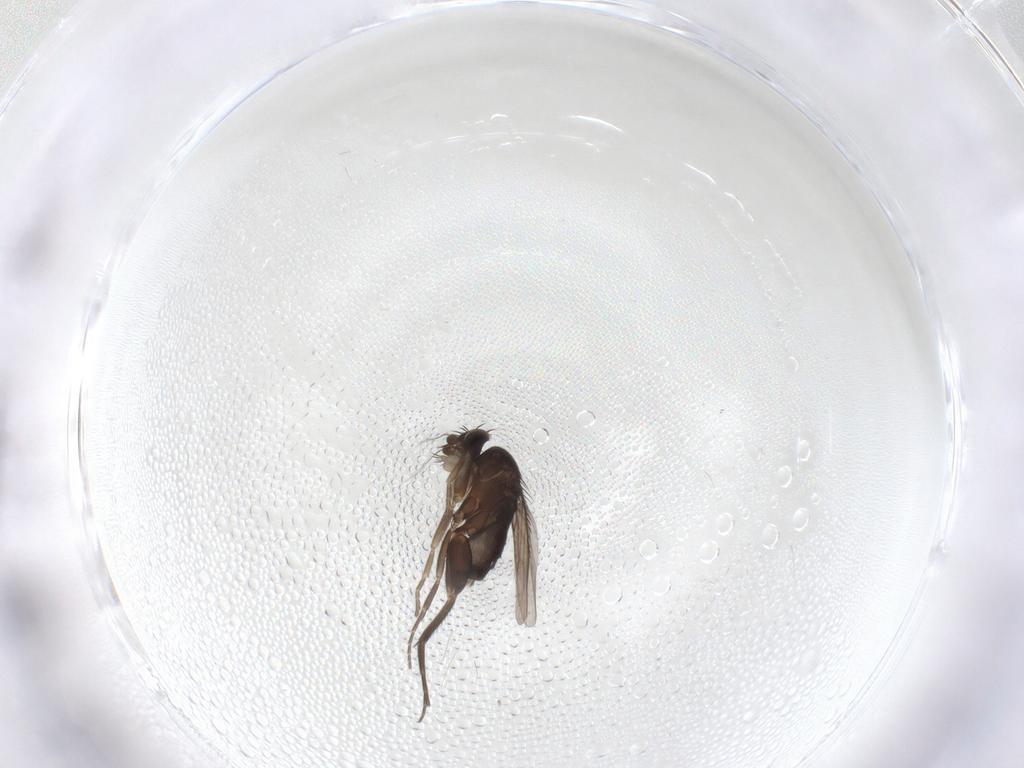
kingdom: Animalia
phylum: Arthropoda
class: Insecta
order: Diptera
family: Phoridae
